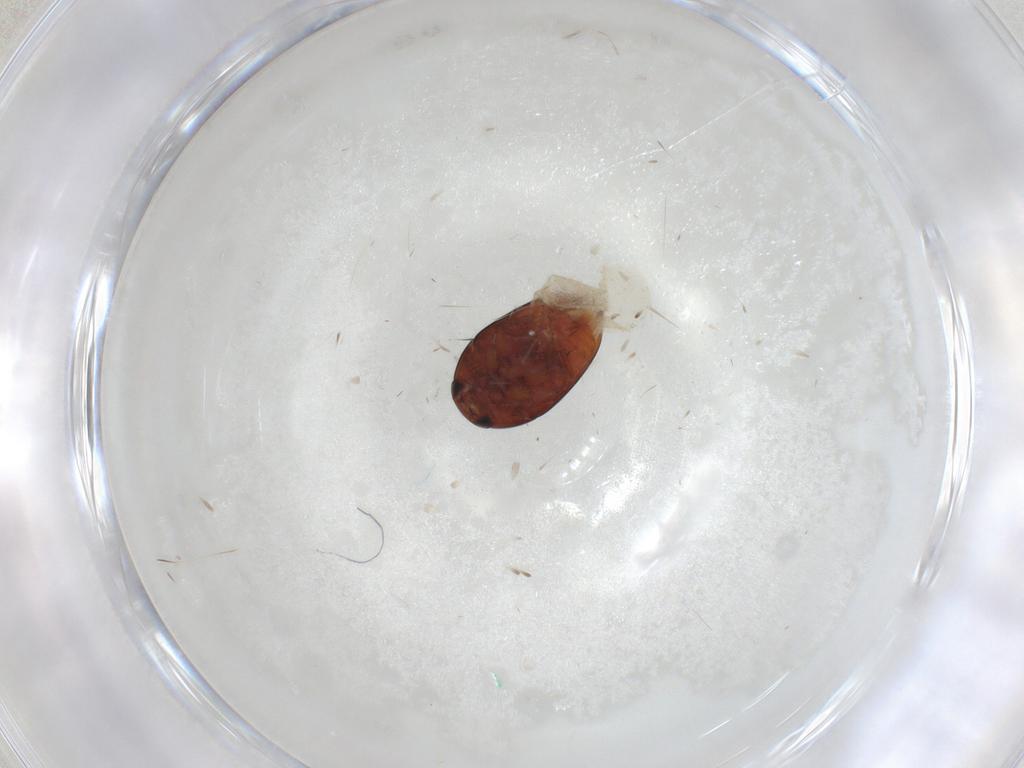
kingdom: Animalia
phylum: Arthropoda
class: Insecta
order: Coleoptera
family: Phalacridae
